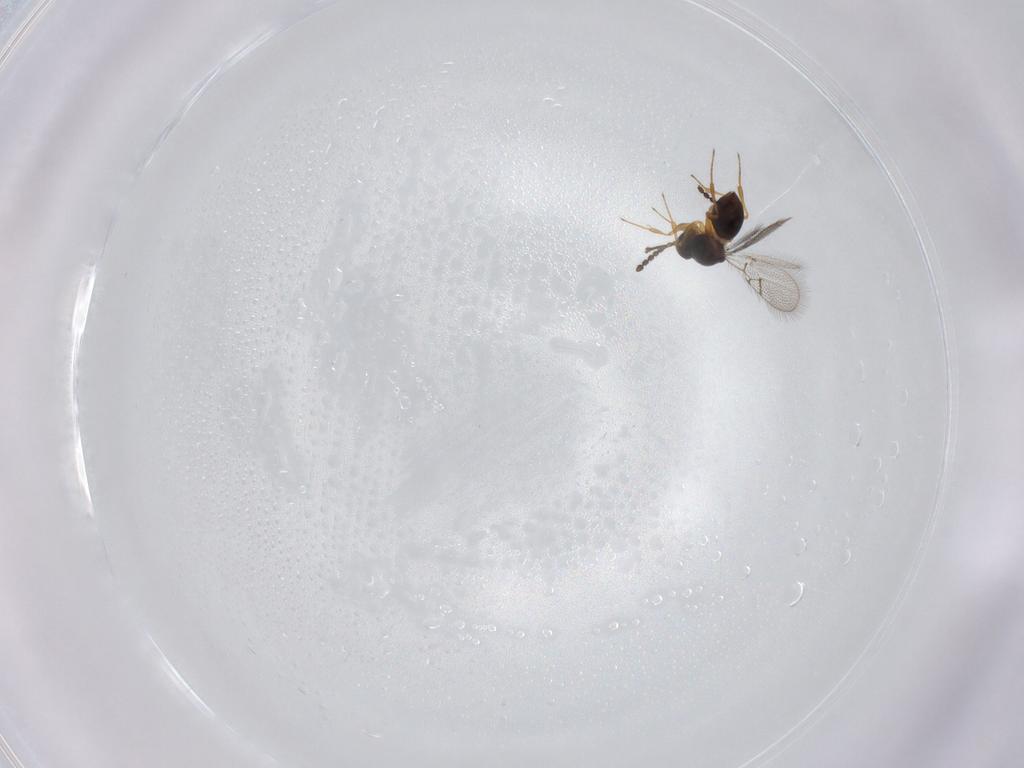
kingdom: Animalia
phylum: Arthropoda
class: Insecta
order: Hymenoptera
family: Figitidae
